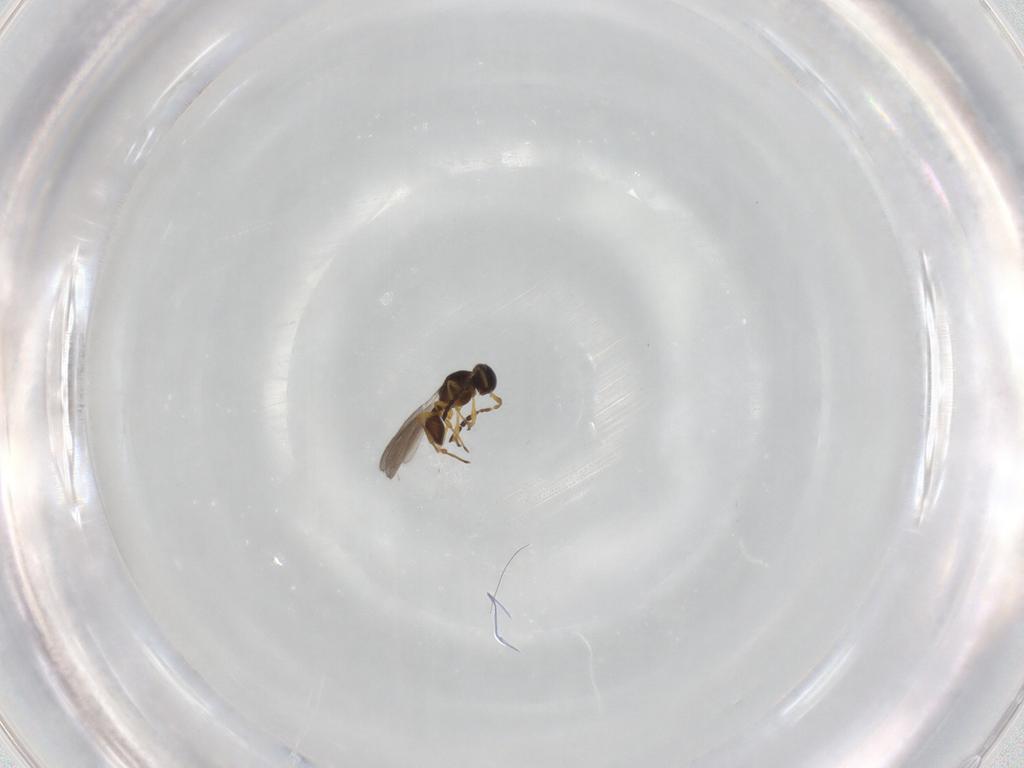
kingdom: Animalia
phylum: Arthropoda
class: Insecta
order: Hymenoptera
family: Platygastridae
